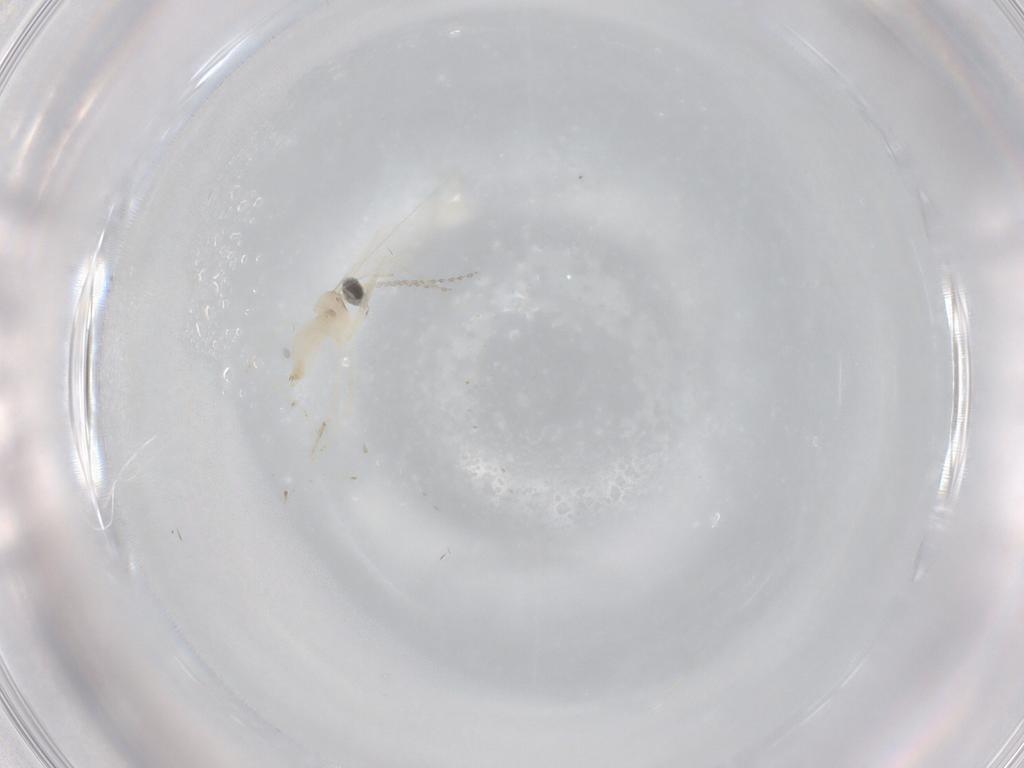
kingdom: Animalia
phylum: Arthropoda
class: Insecta
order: Diptera
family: Cecidomyiidae
